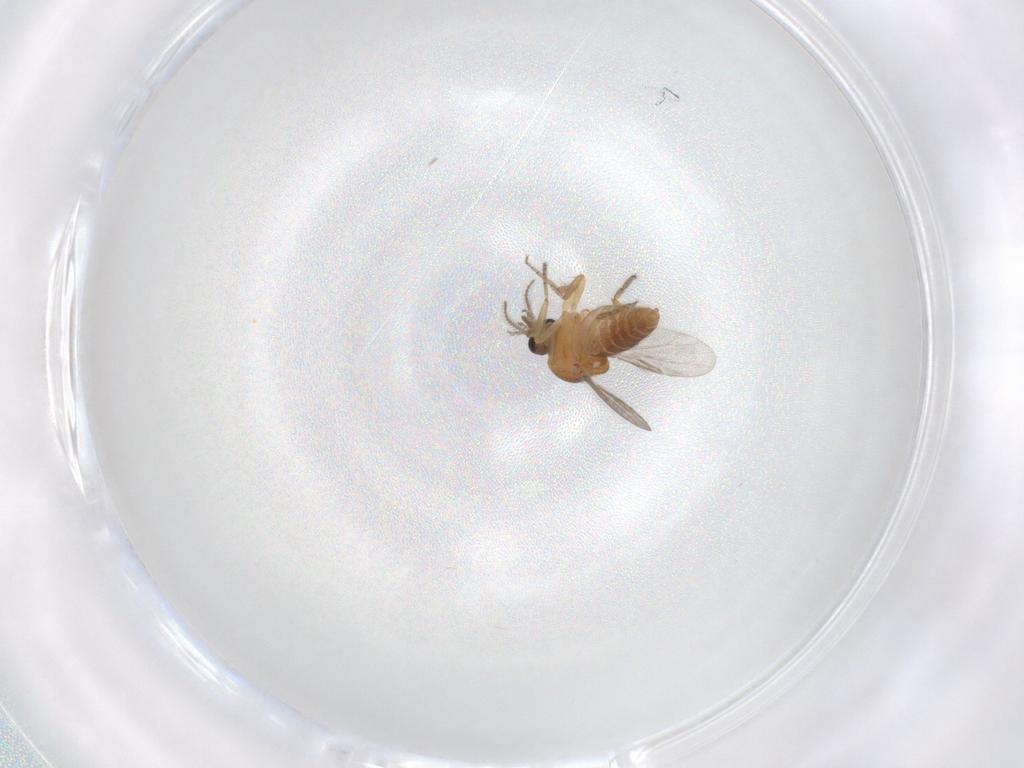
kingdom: Animalia
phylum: Arthropoda
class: Insecta
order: Diptera
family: Ceratopogonidae
